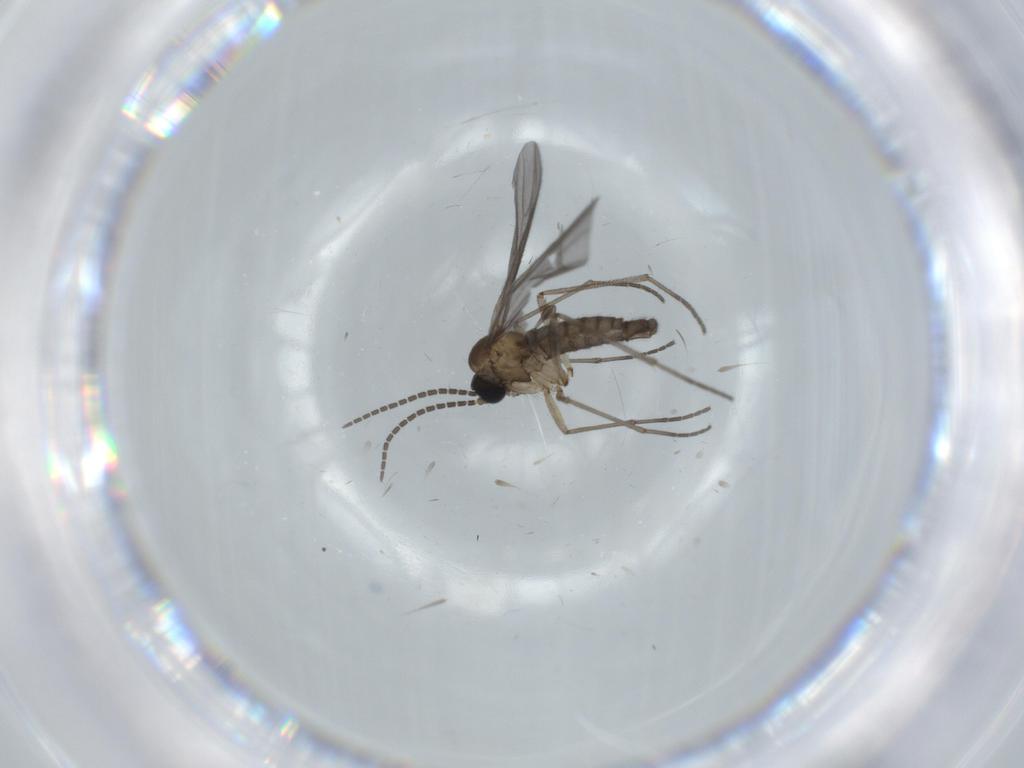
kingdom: Animalia
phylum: Arthropoda
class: Insecta
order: Diptera
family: Sciaridae
